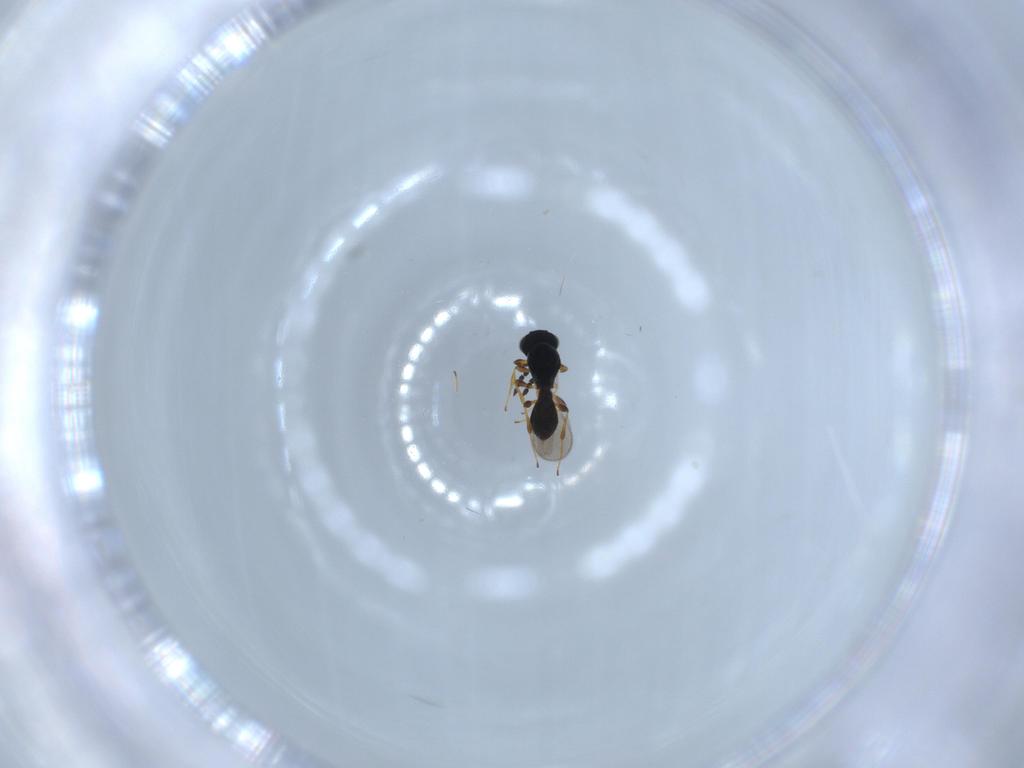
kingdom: Animalia
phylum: Arthropoda
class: Insecta
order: Hymenoptera
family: Platygastridae
